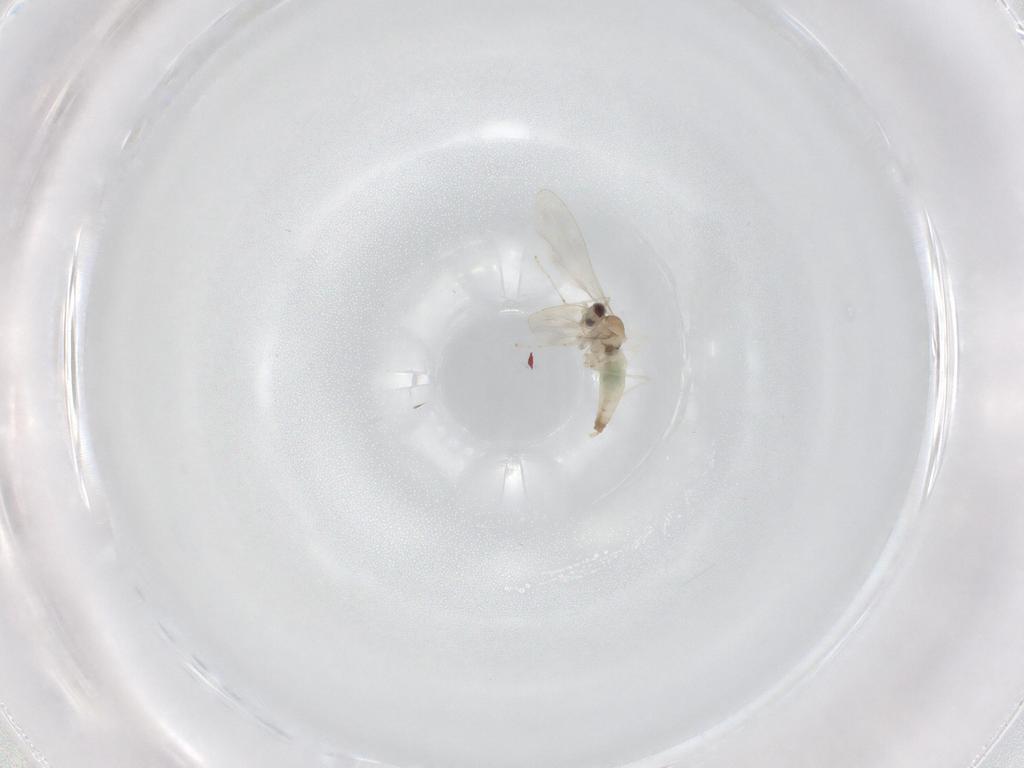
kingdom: Animalia
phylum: Arthropoda
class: Insecta
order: Diptera
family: Cecidomyiidae
